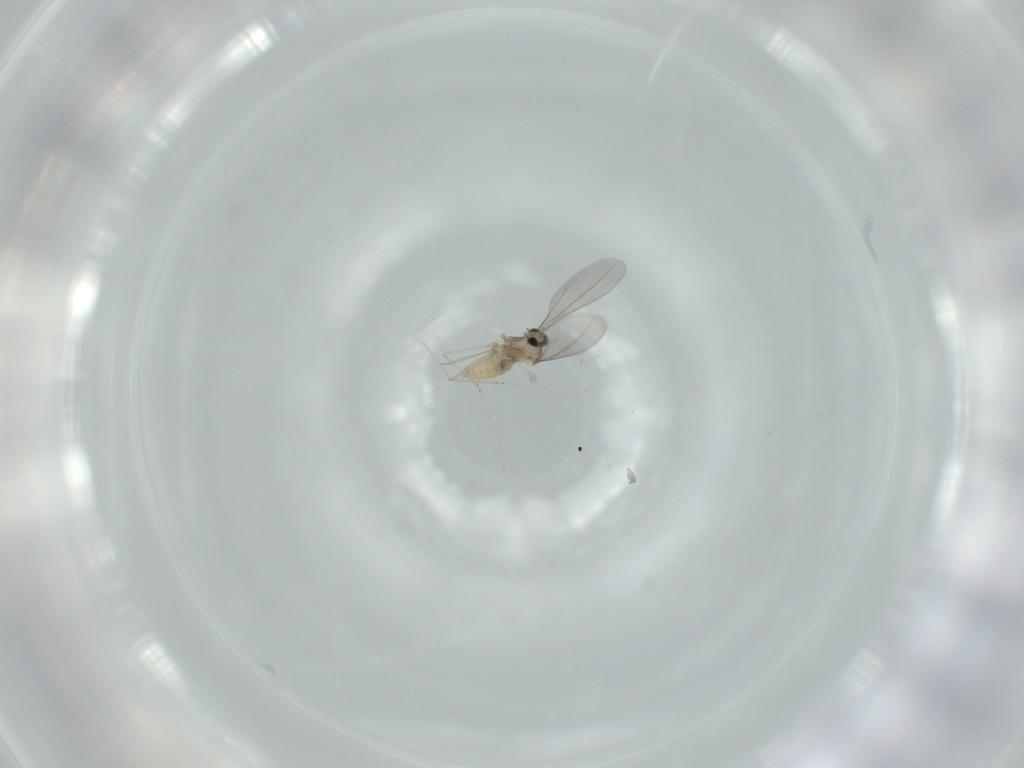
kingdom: Animalia
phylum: Arthropoda
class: Insecta
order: Diptera
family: Cecidomyiidae
